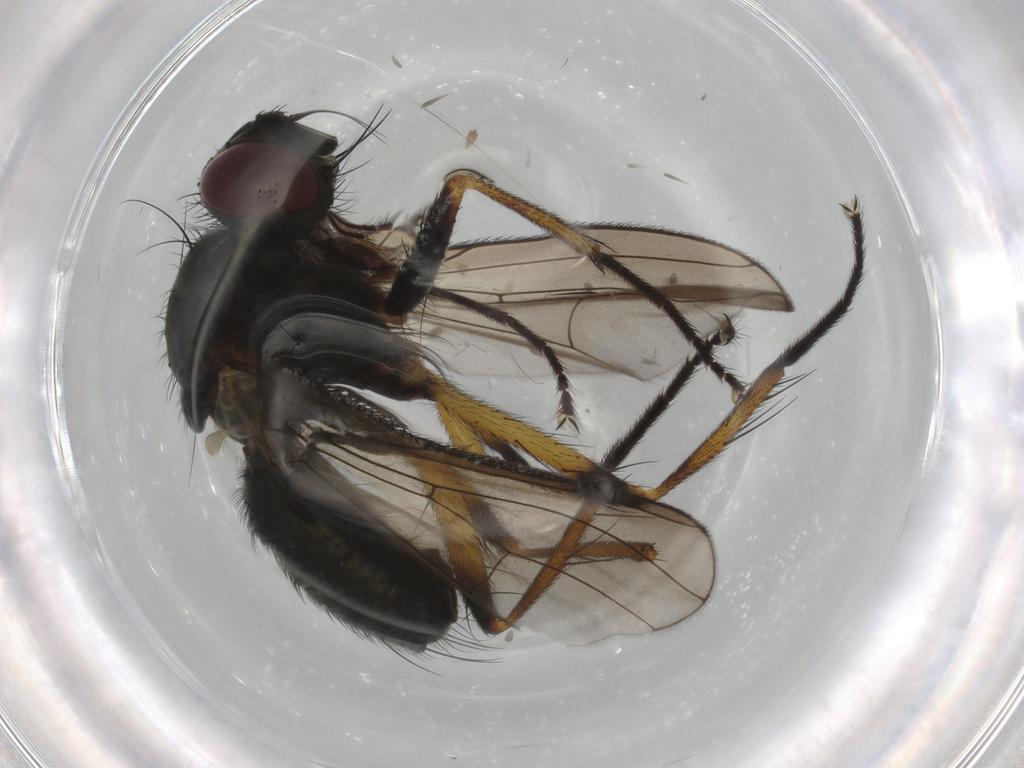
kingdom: Animalia
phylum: Arthropoda
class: Insecta
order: Diptera
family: Muscidae
